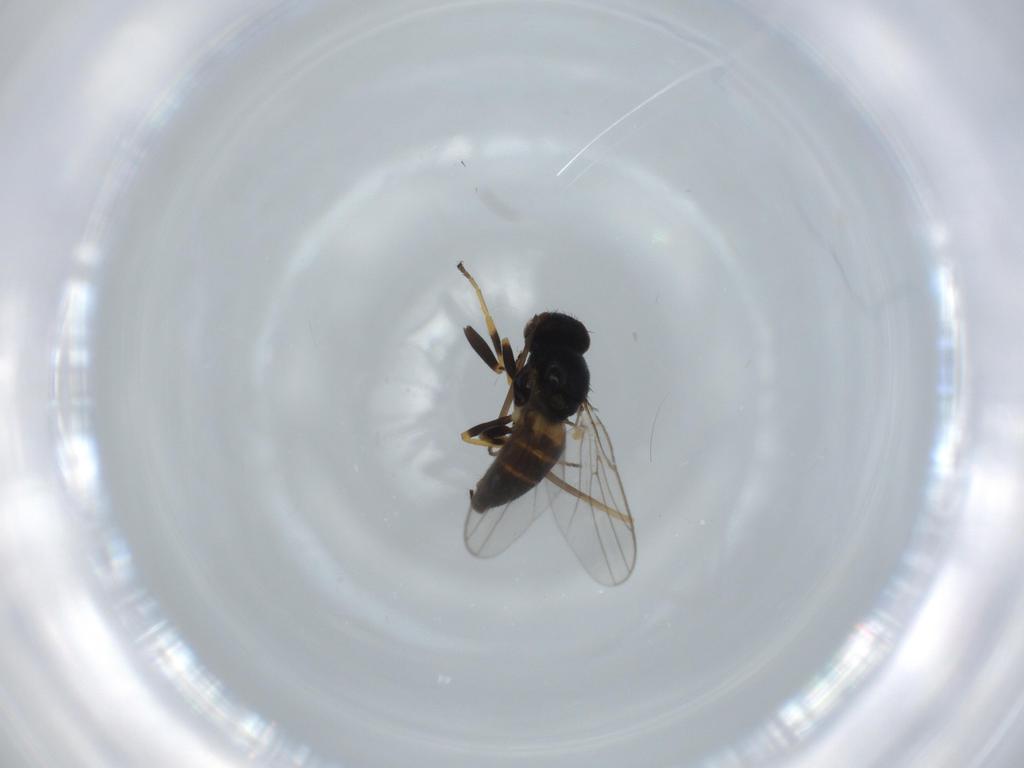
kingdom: Animalia
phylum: Arthropoda
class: Insecta
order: Diptera
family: Chloropidae
